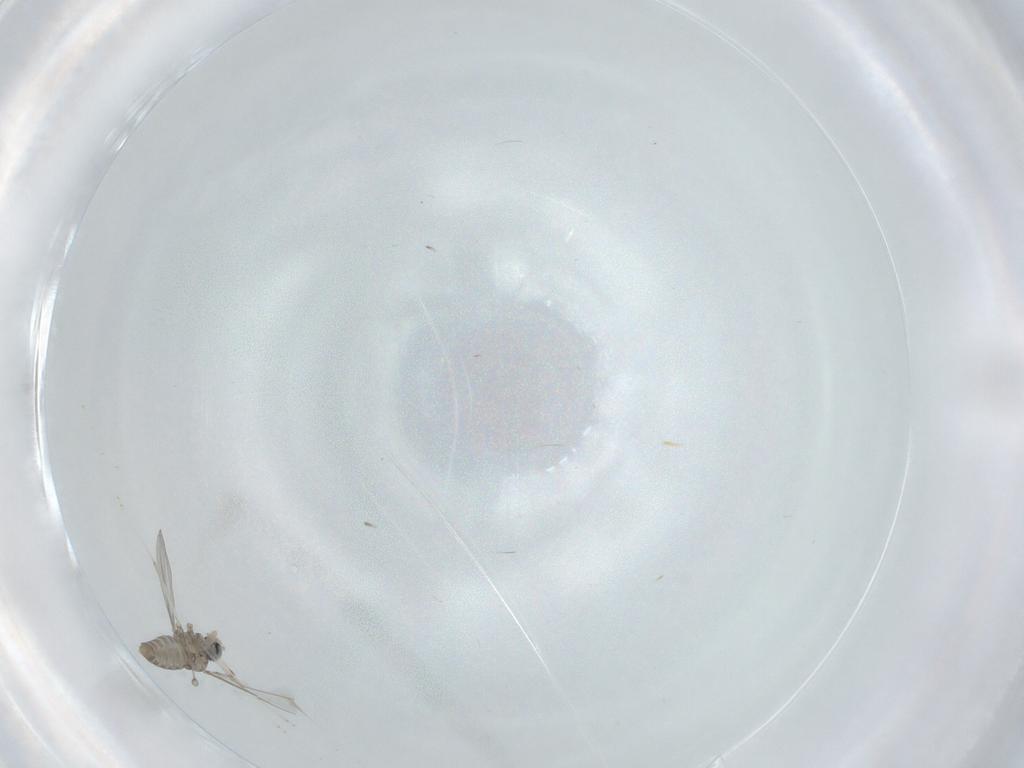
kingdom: Animalia
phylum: Arthropoda
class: Insecta
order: Diptera
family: Cecidomyiidae
